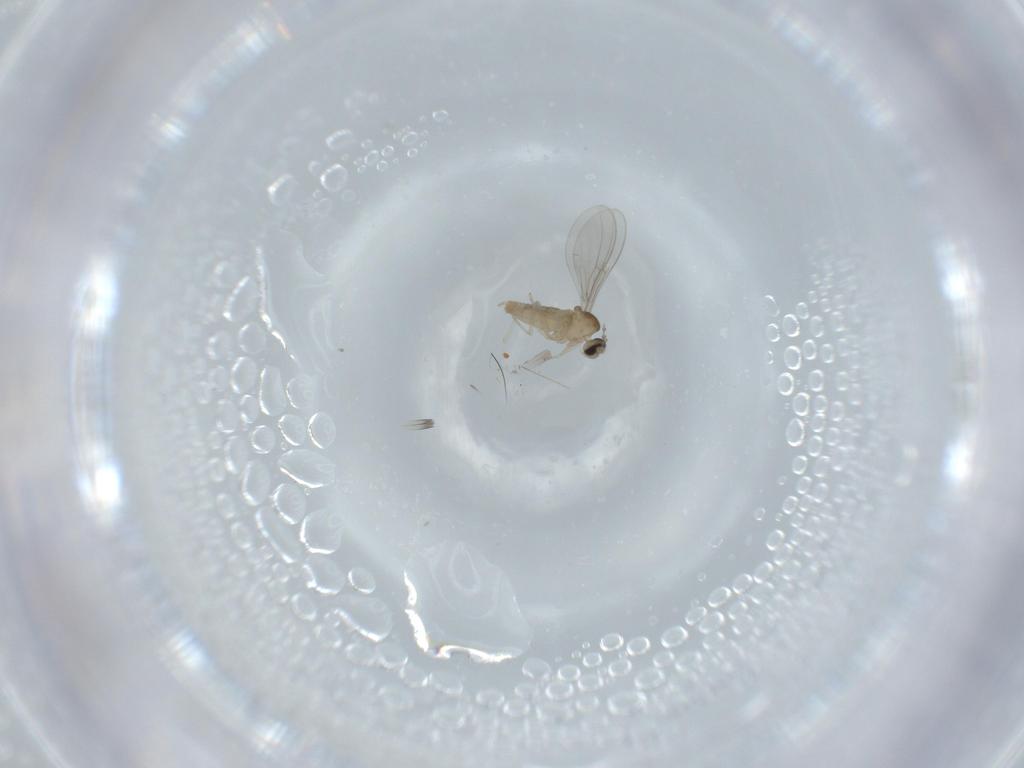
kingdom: Animalia
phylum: Arthropoda
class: Insecta
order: Diptera
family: Cecidomyiidae
